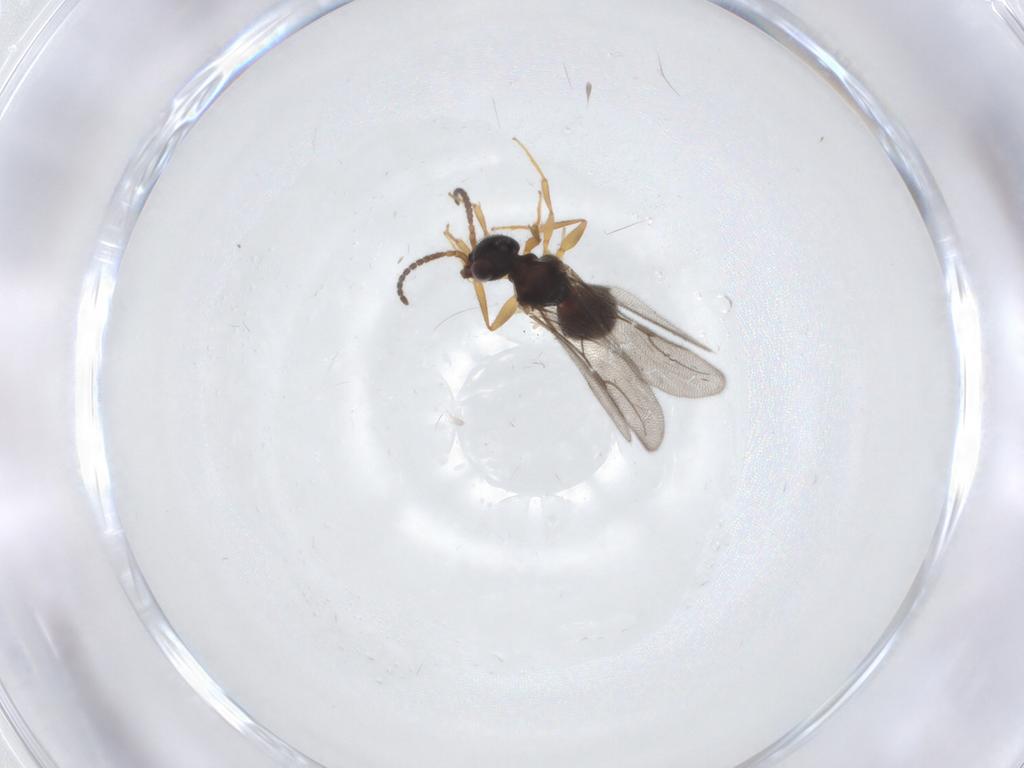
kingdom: Animalia
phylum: Arthropoda
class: Insecta
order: Hymenoptera
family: Bethylidae
